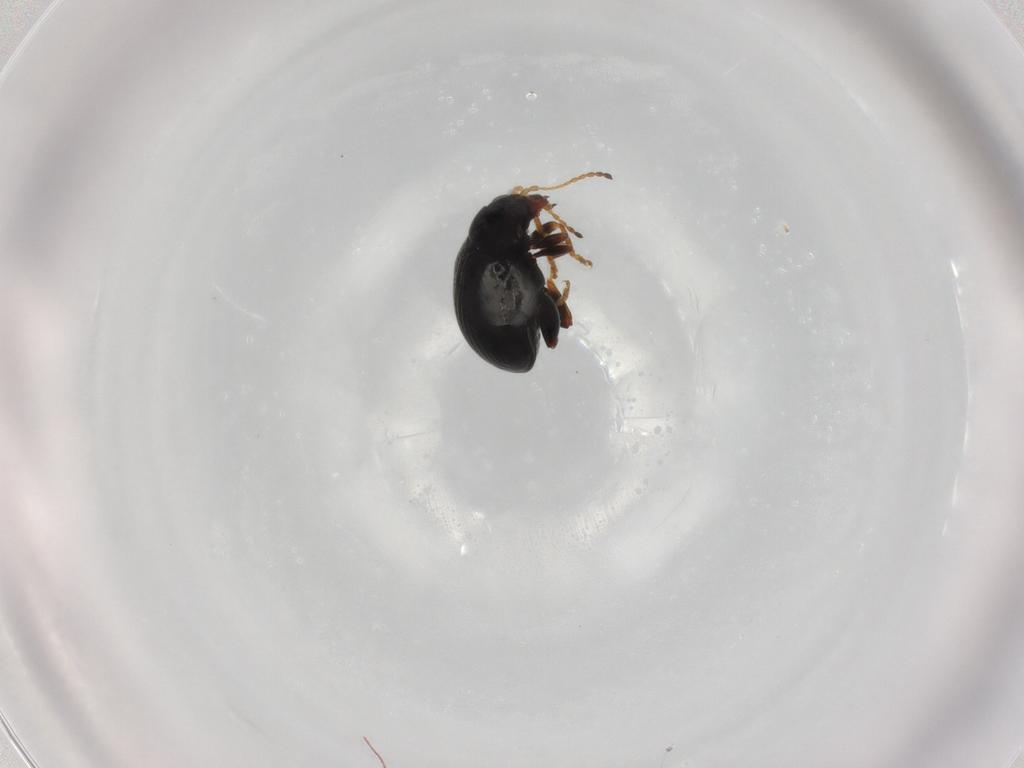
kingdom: Animalia
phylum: Arthropoda
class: Insecta
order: Coleoptera
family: Chrysomelidae
